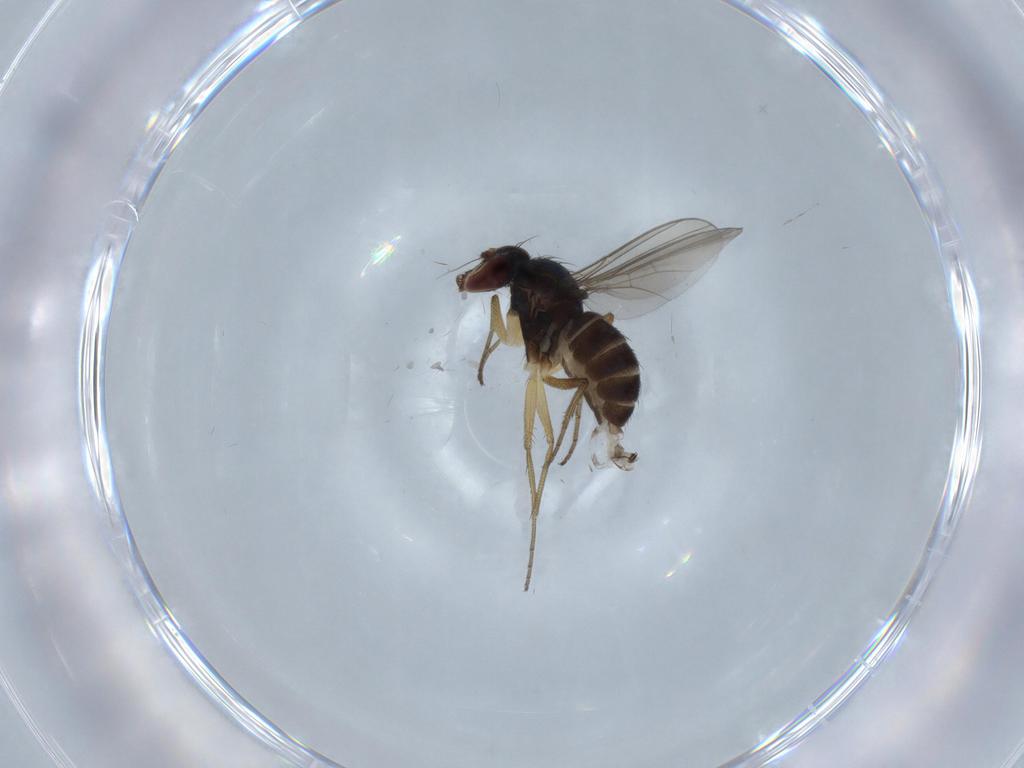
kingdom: Animalia
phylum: Arthropoda
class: Insecta
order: Diptera
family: Dolichopodidae
